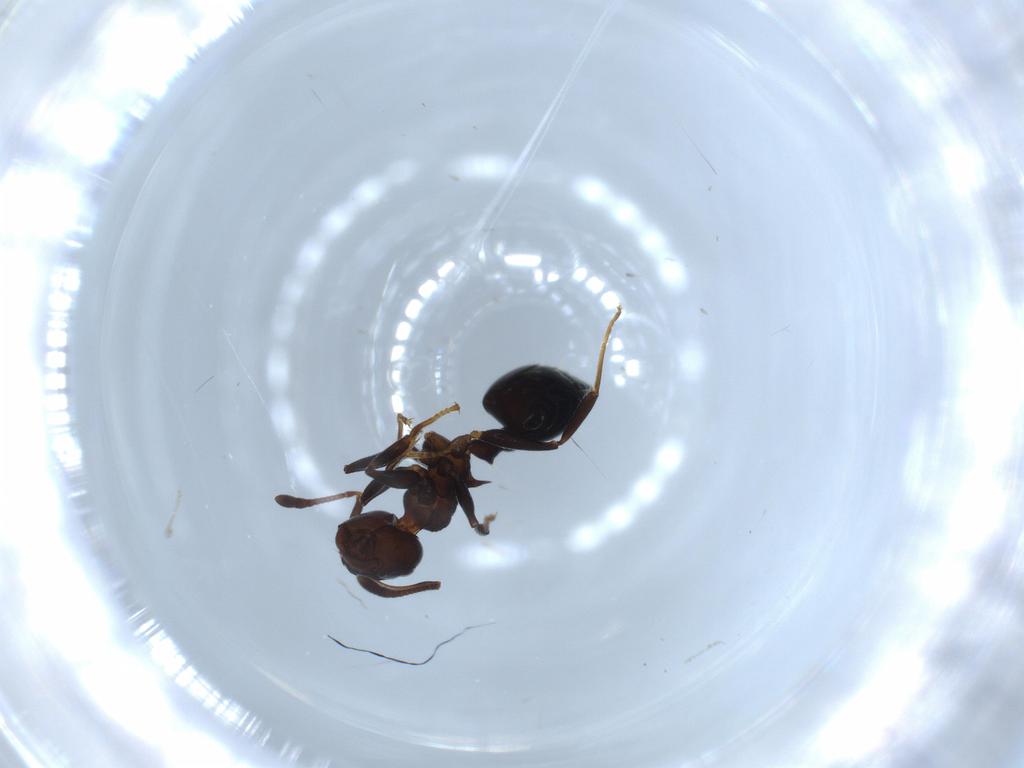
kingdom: Animalia
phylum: Arthropoda
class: Insecta
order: Hymenoptera
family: Formicidae
